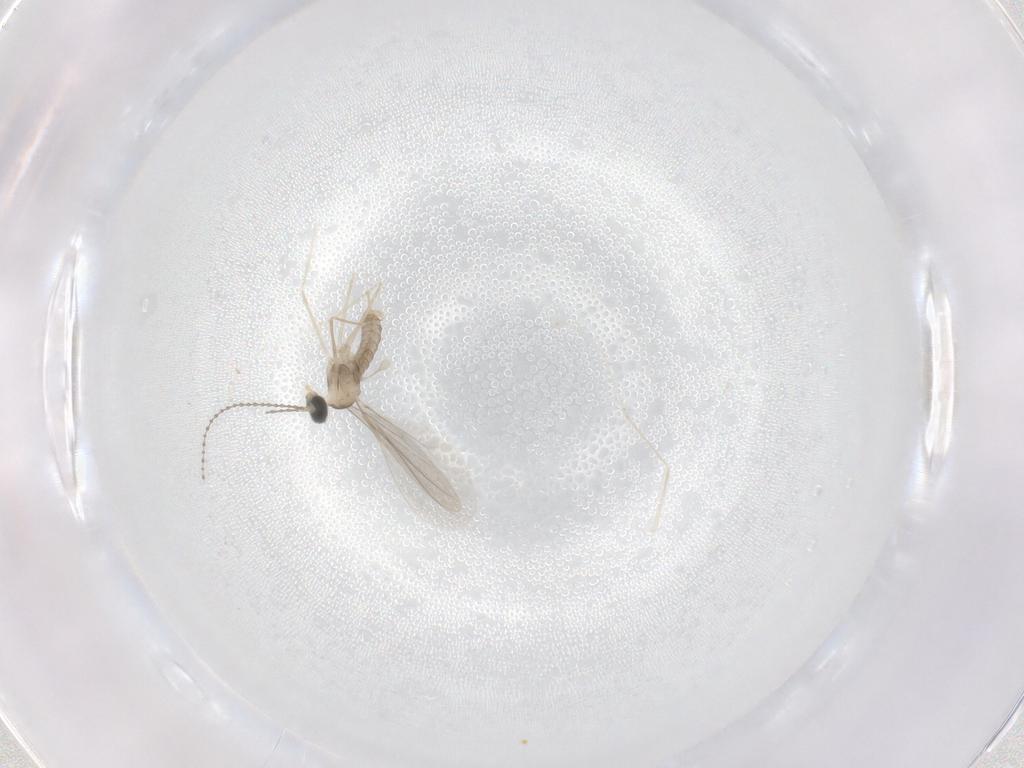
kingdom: Animalia
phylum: Arthropoda
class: Insecta
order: Diptera
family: Cecidomyiidae
